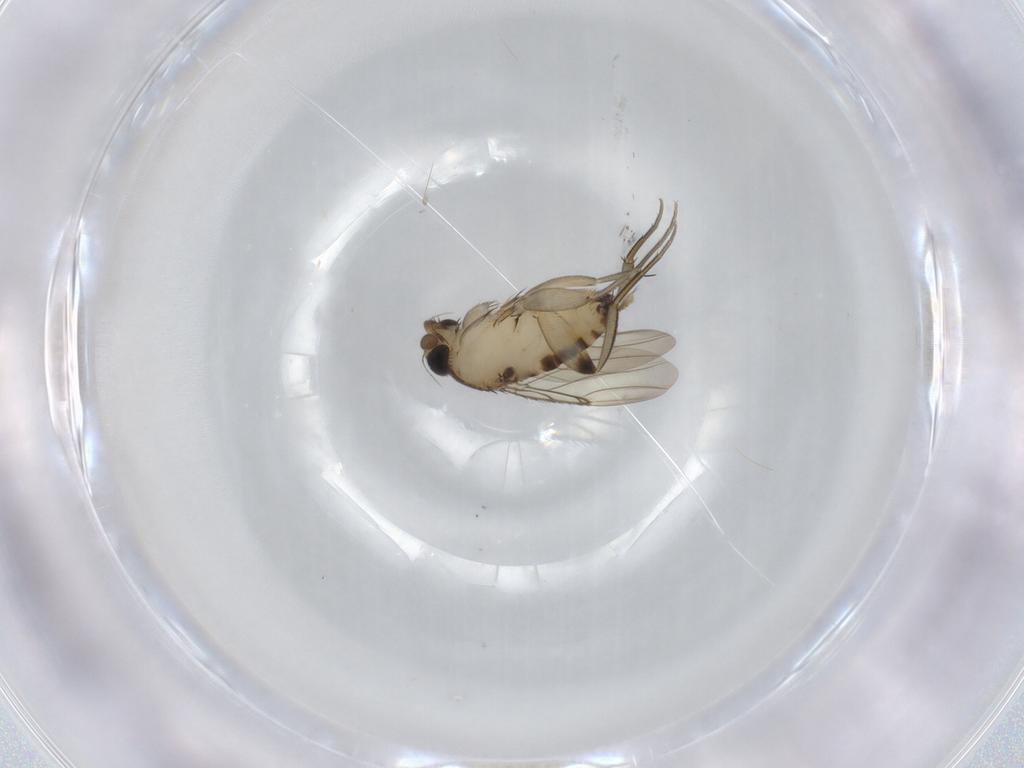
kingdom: Animalia
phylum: Arthropoda
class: Insecta
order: Diptera
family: Phoridae
